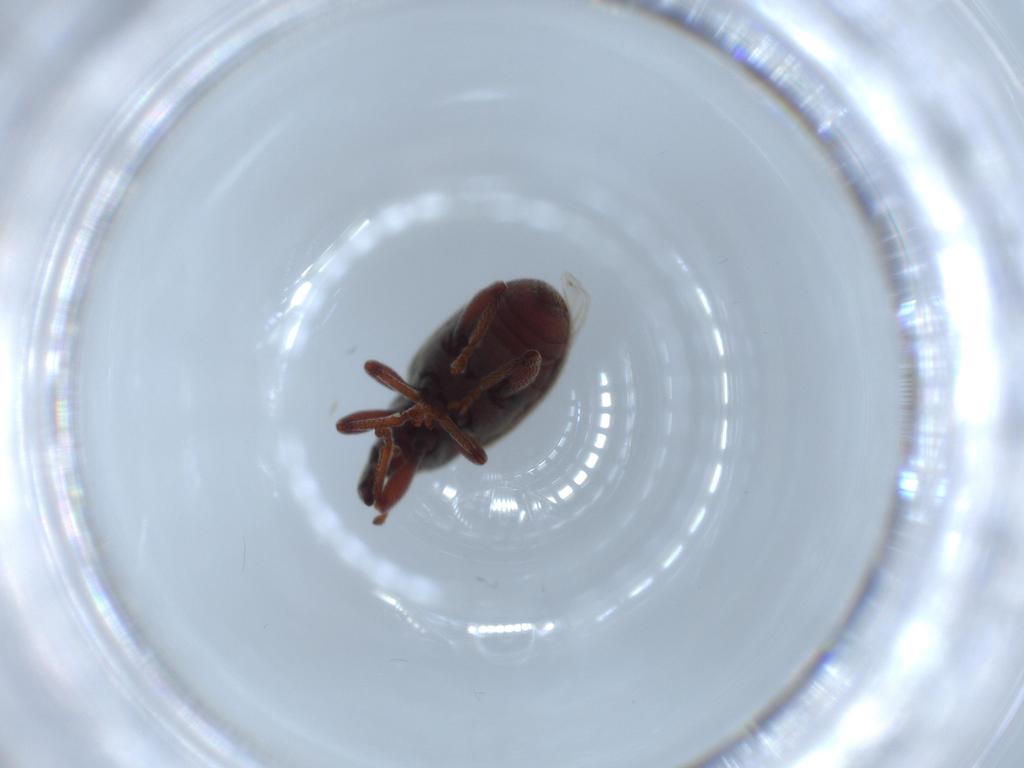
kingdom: Animalia
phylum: Arthropoda
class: Insecta
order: Coleoptera
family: Curculionidae
